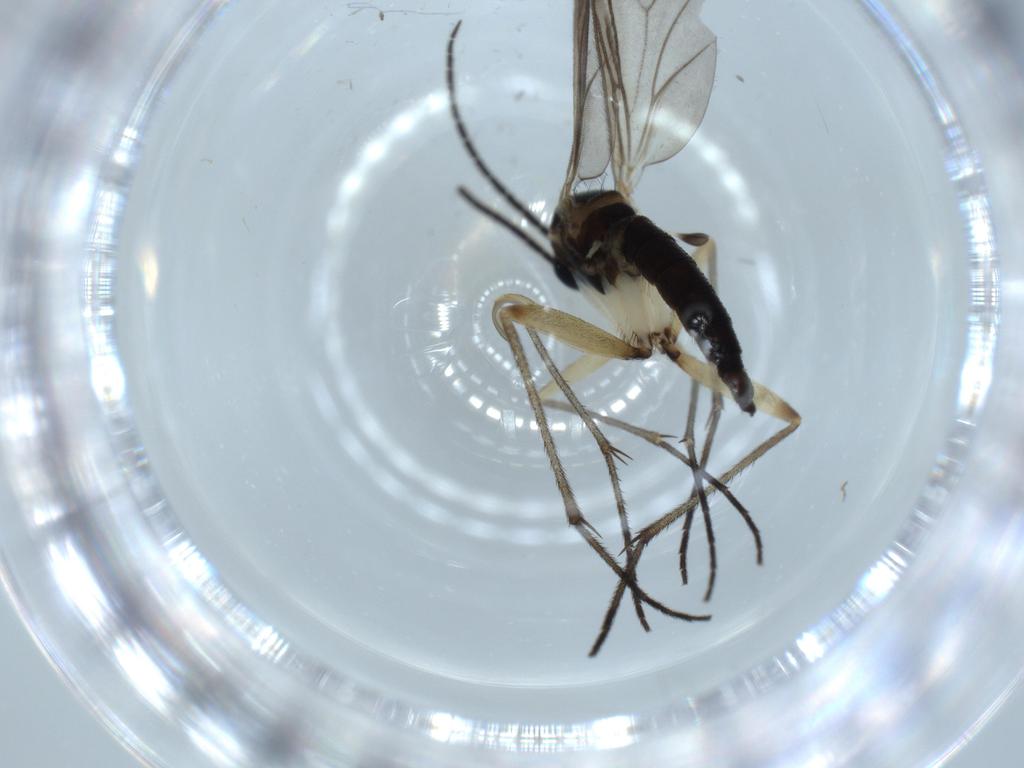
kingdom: Animalia
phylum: Arthropoda
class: Insecta
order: Diptera
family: Sciaridae
